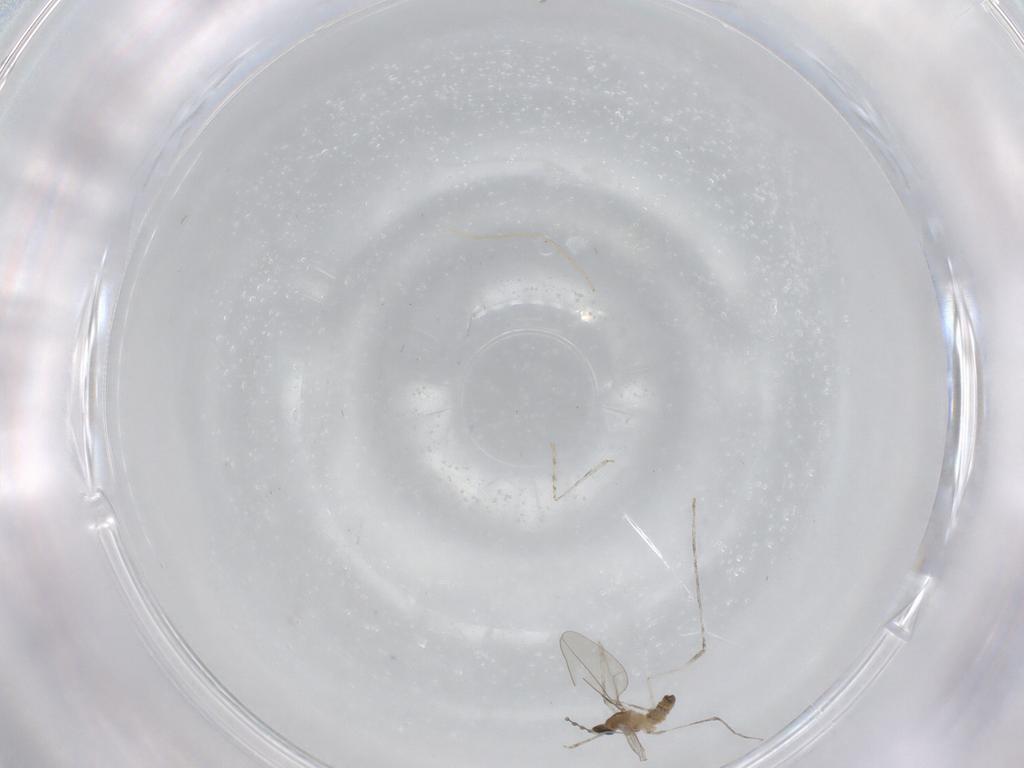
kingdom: Animalia
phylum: Arthropoda
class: Insecta
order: Diptera
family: Chironomidae
